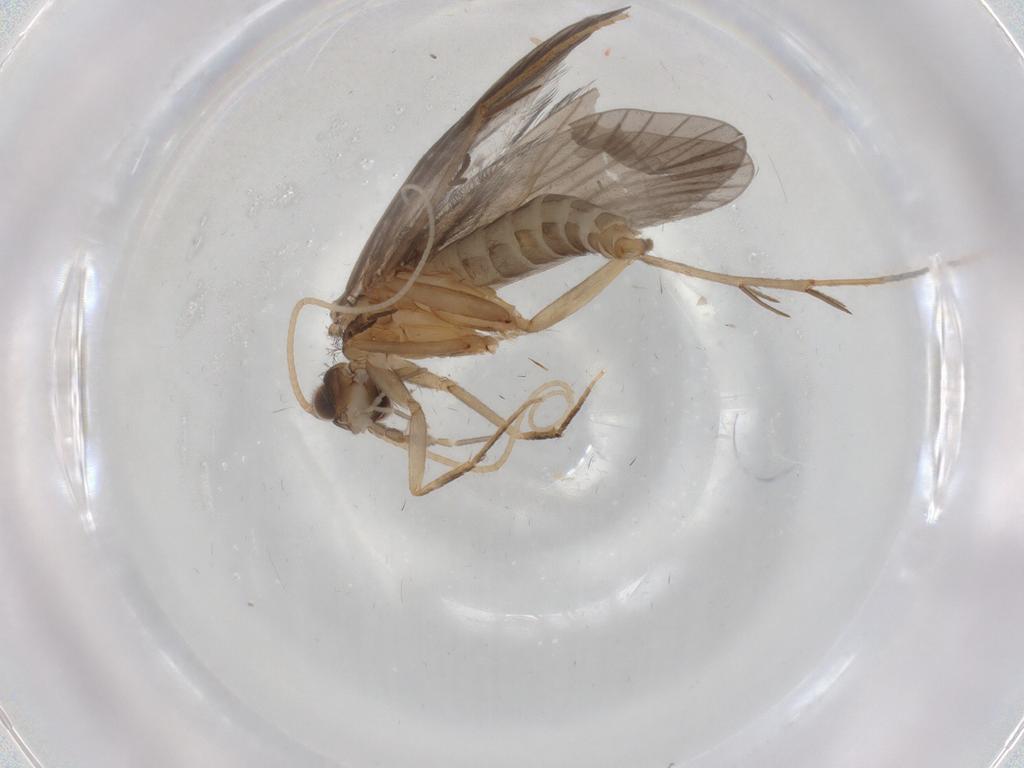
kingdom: Animalia
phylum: Arthropoda
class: Insecta
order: Trichoptera
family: Philopotamidae
